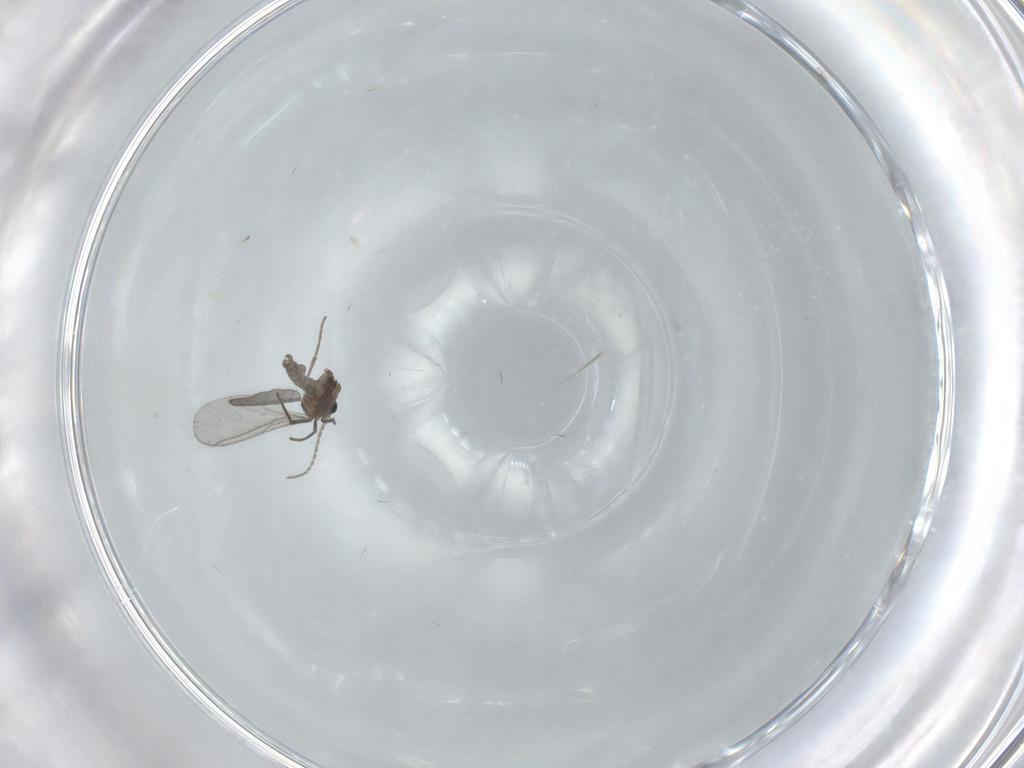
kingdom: Animalia
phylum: Arthropoda
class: Insecta
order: Diptera
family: Sciaridae
